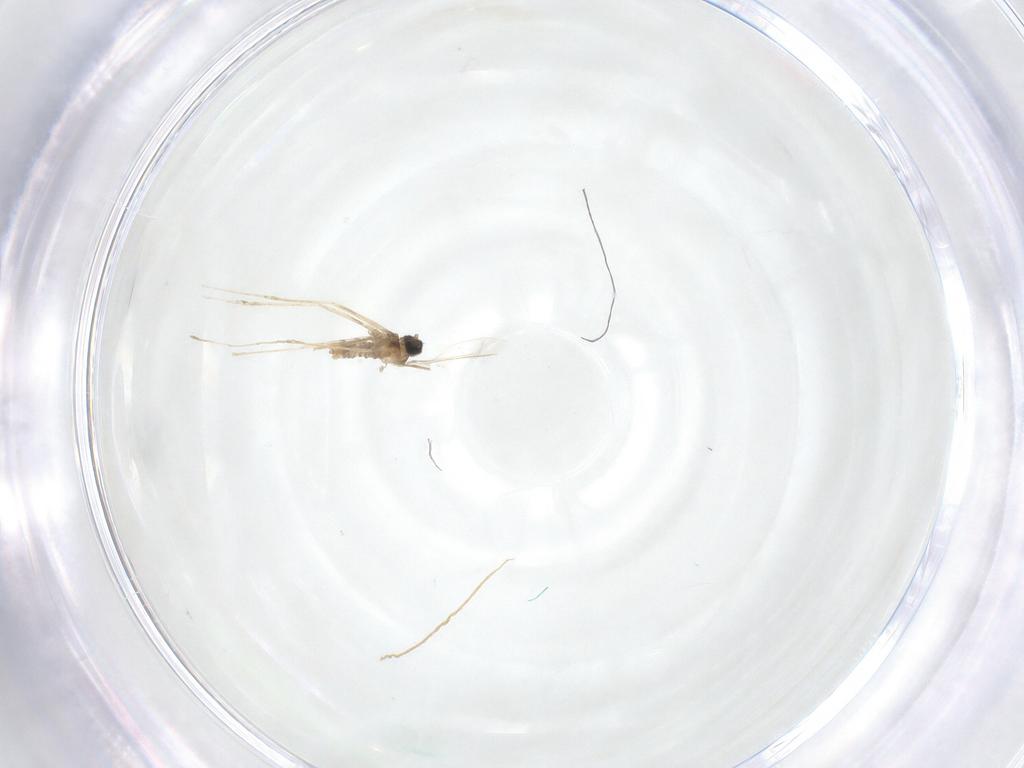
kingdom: Animalia
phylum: Arthropoda
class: Insecta
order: Diptera
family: Cecidomyiidae
